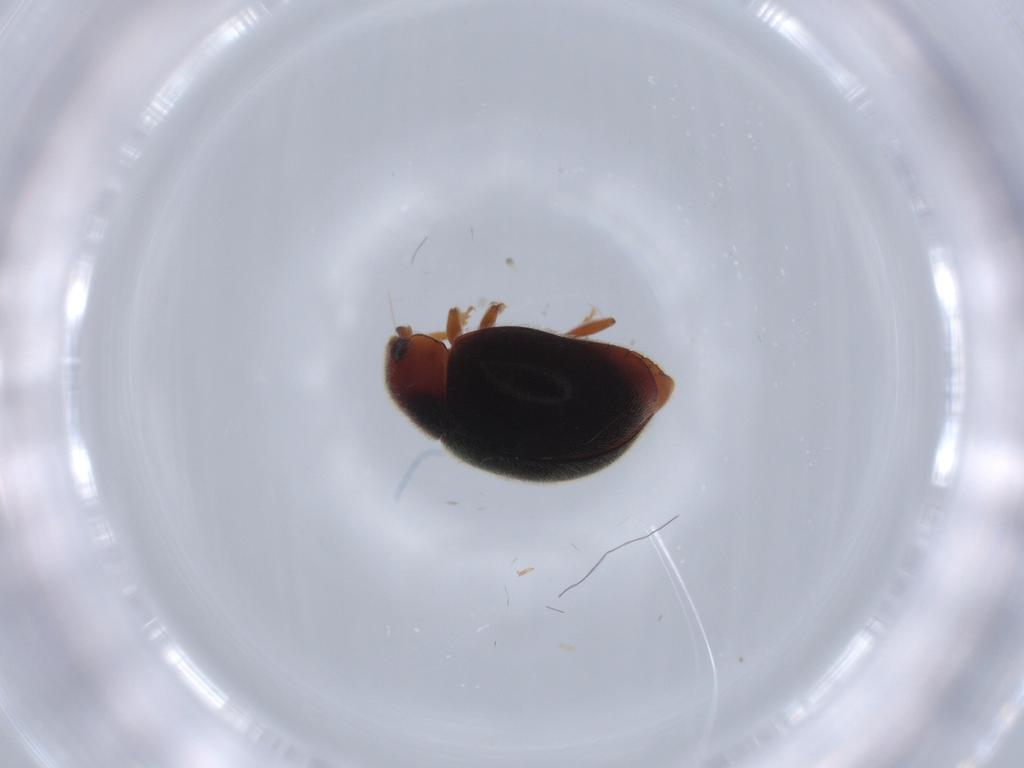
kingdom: Animalia
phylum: Arthropoda
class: Insecta
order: Coleoptera
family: Coccinellidae
